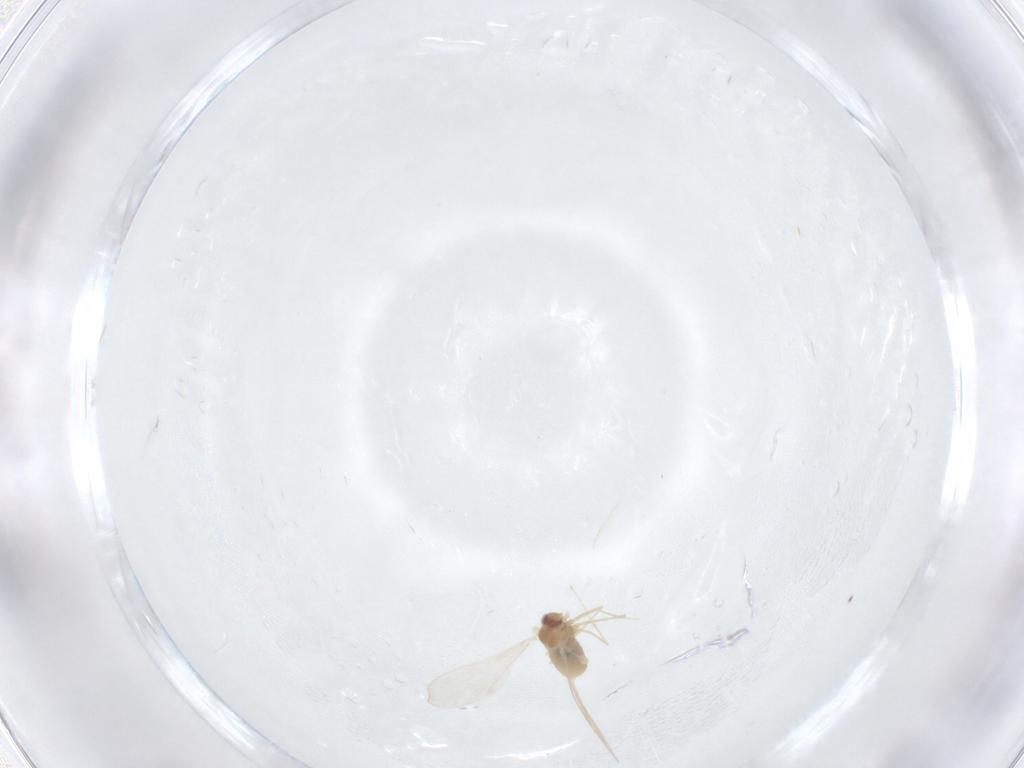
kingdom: Animalia
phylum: Arthropoda
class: Insecta
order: Diptera
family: Cecidomyiidae
